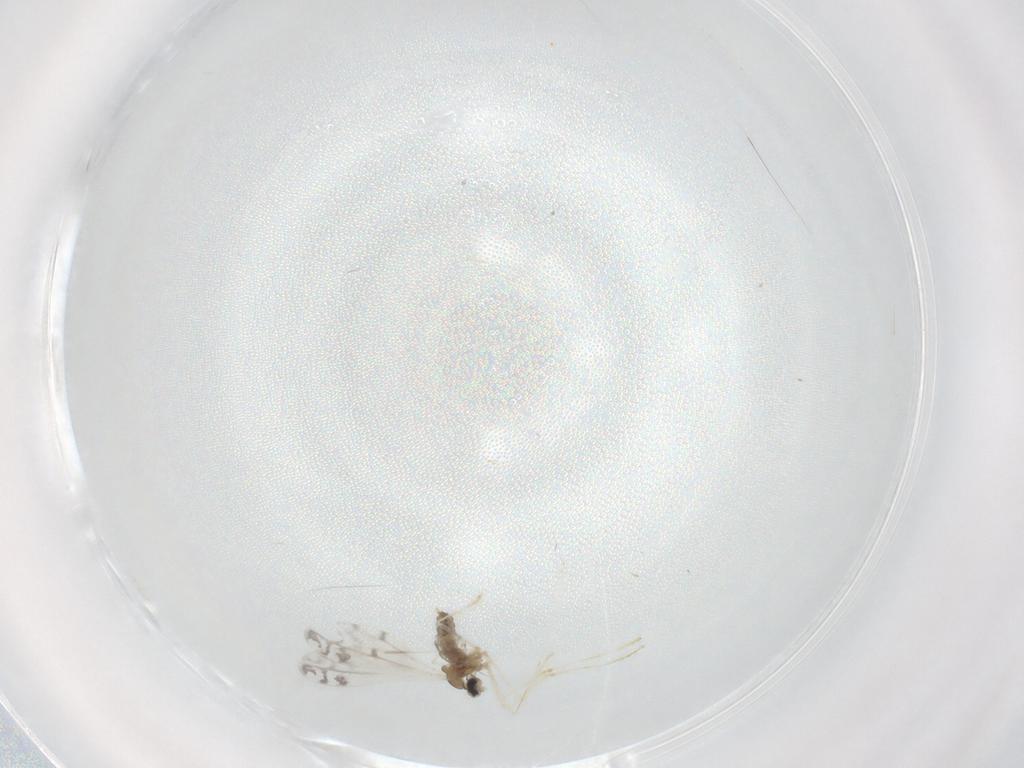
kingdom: Animalia
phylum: Arthropoda
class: Insecta
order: Diptera
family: Cecidomyiidae
